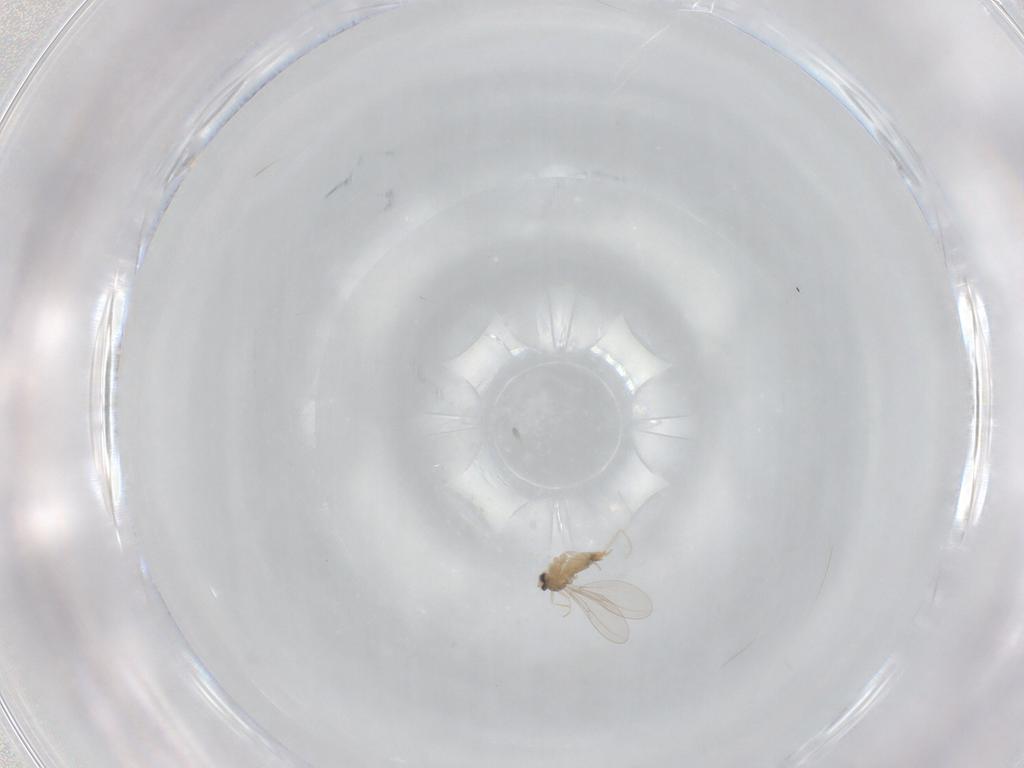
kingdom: Animalia
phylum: Arthropoda
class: Insecta
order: Diptera
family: Cecidomyiidae
